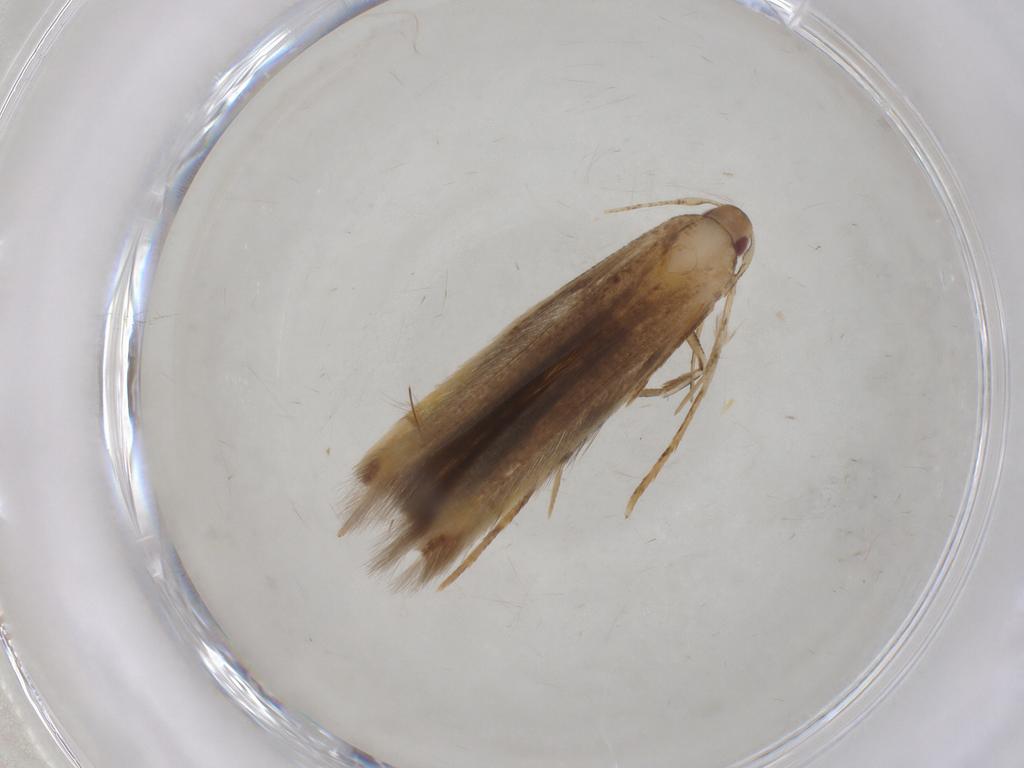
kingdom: Animalia
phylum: Arthropoda
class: Insecta
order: Lepidoptera
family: Cosmopterigidae
